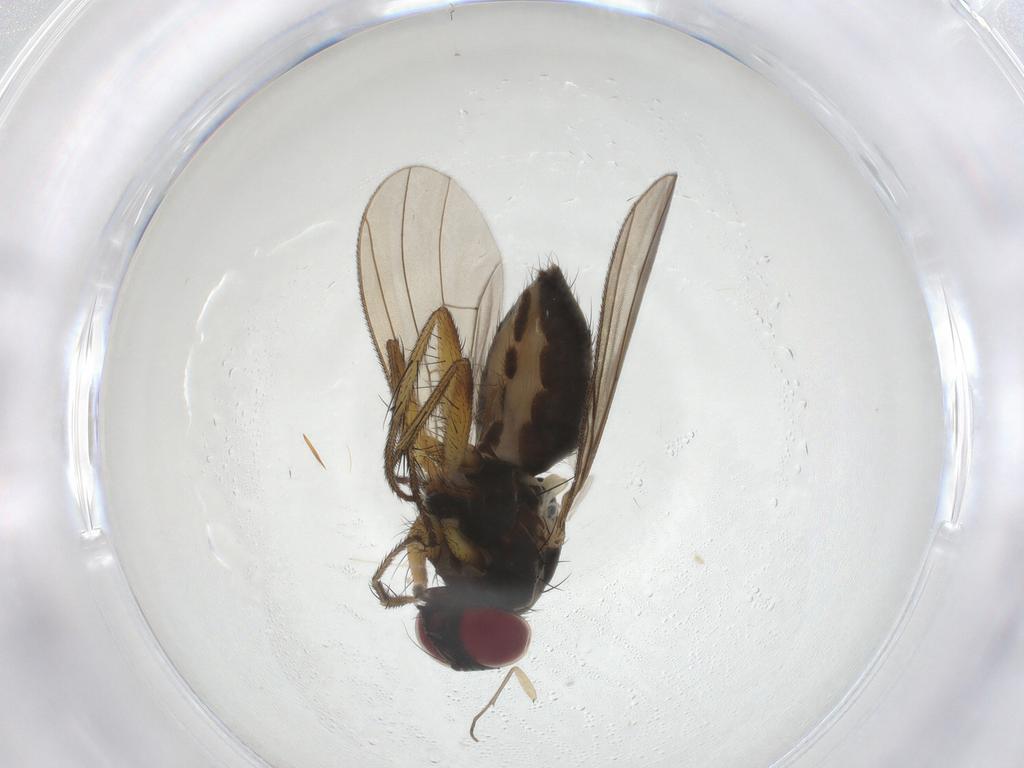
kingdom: Animalia
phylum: Arthropoda
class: Insecta
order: Diptera
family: Muscidae
